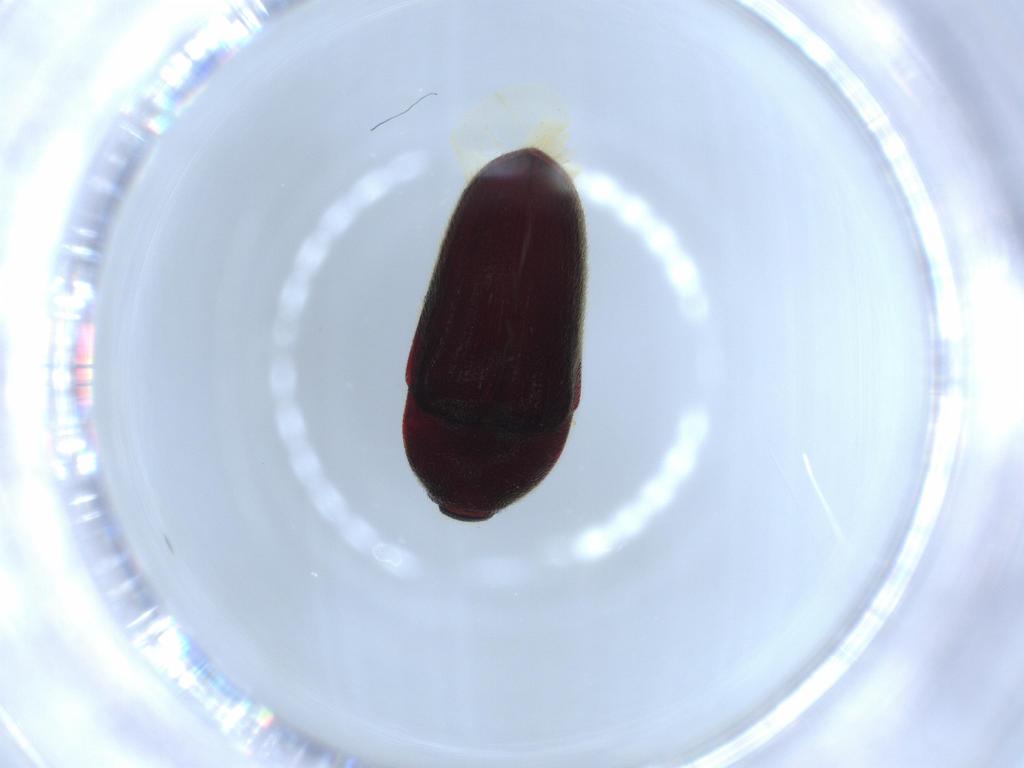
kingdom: Animalia
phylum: Arthropoda
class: Insecta
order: Coleoptera
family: Throscidae
